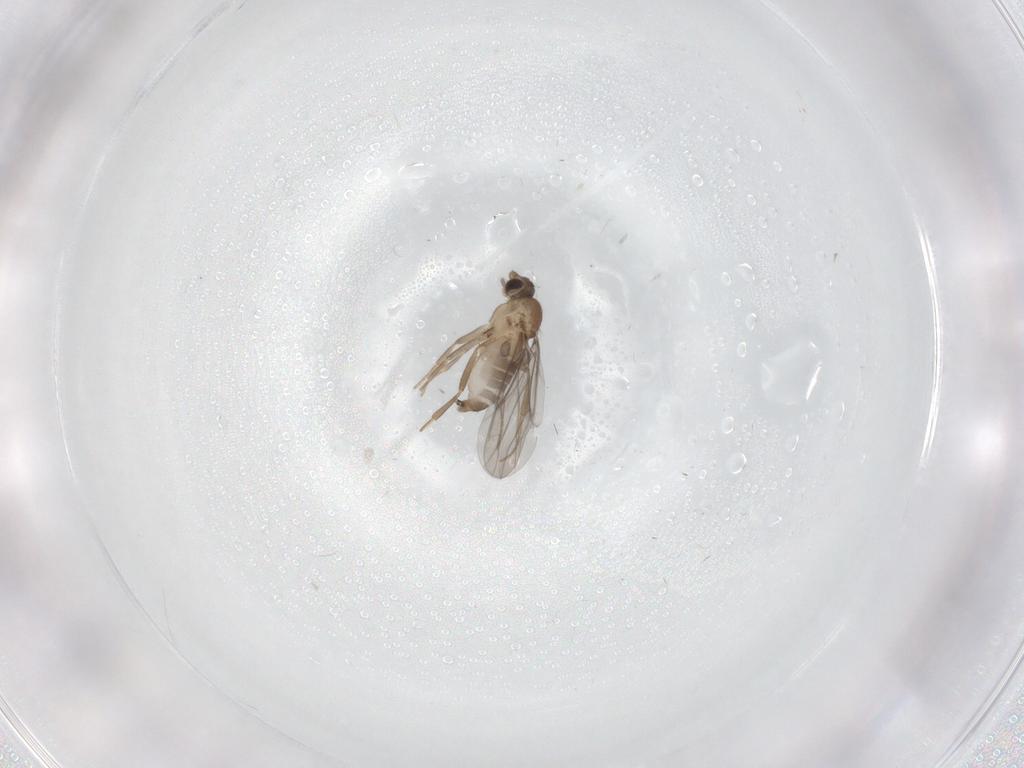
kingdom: Animalia
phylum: Arthropoda
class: Insecta
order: Diptera
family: Cecidomyiidae
